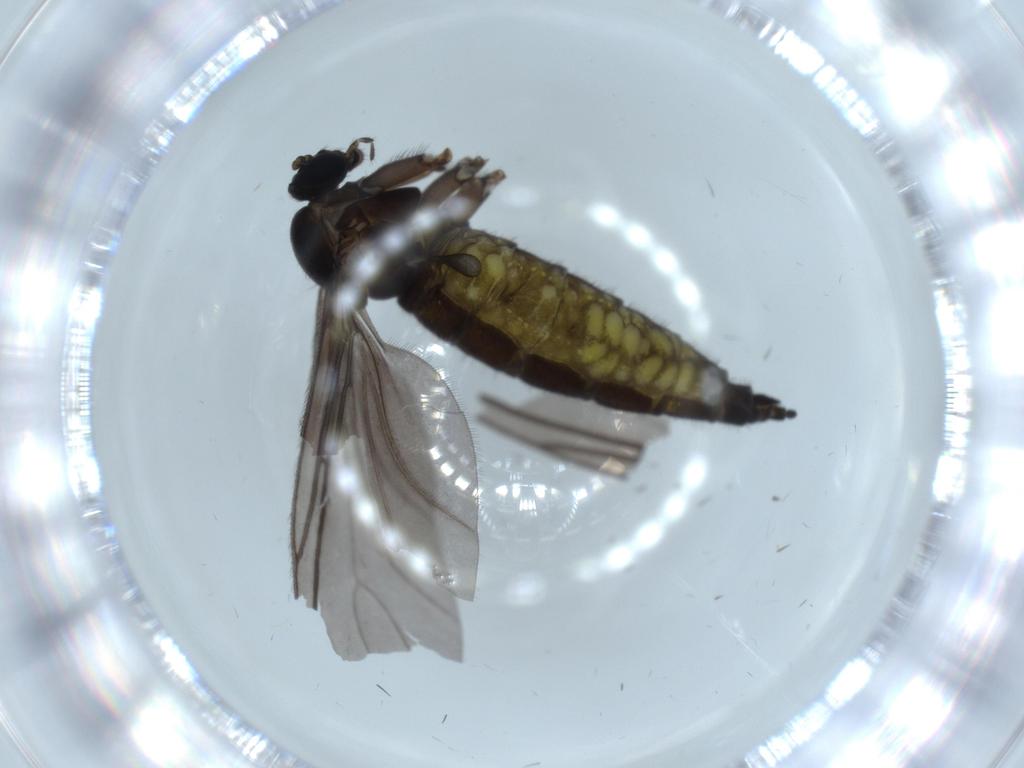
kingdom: Animalia
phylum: Arthropoda
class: Insecta
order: Diptera
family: Sciaridae
